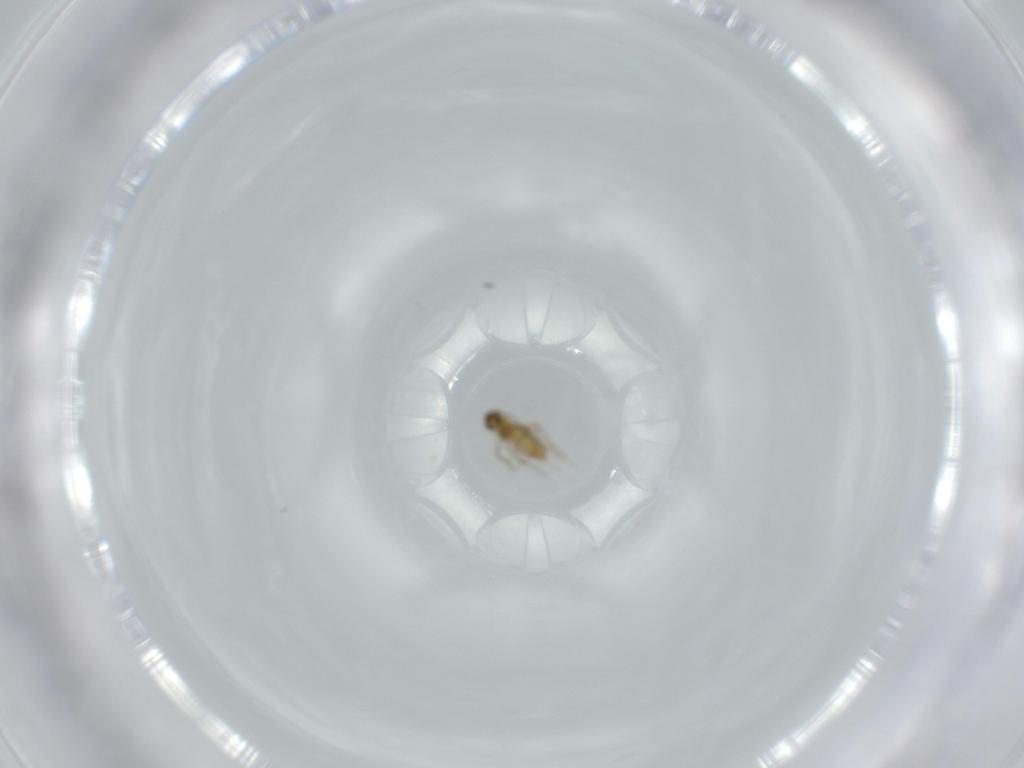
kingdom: Animalia
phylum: Arthropoda
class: Insecta
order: Diptera
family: Chironomidae
